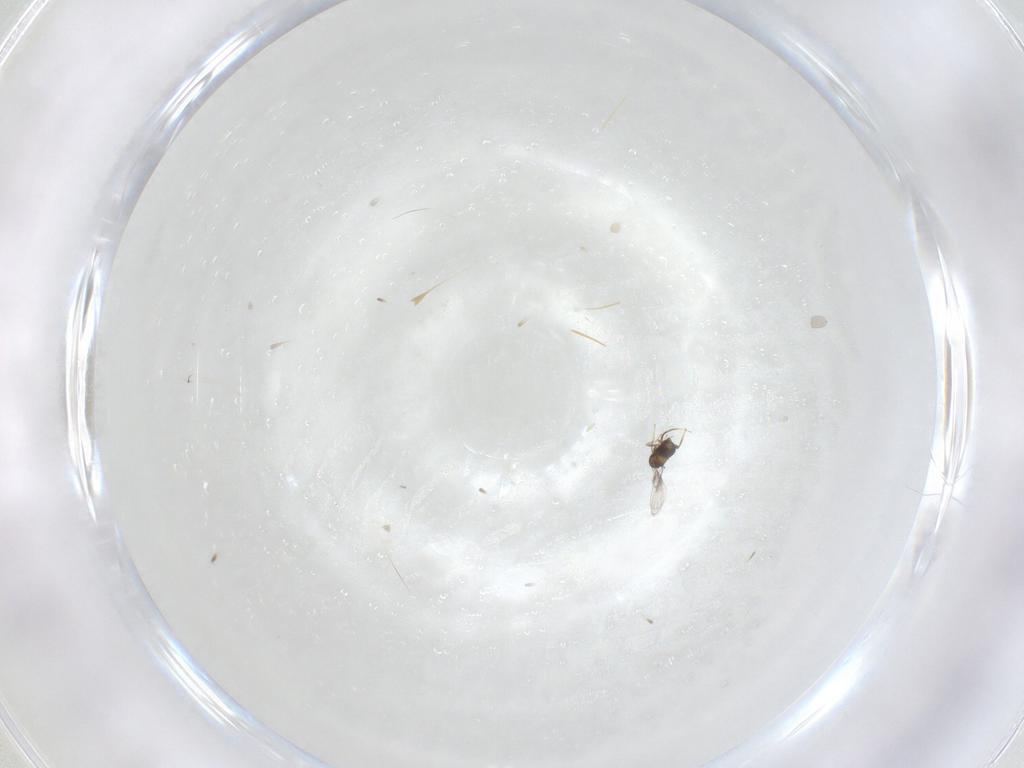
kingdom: Animalia
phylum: Arthropoda
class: Insecta
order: Hymenoptera
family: Trichogrammatidae
